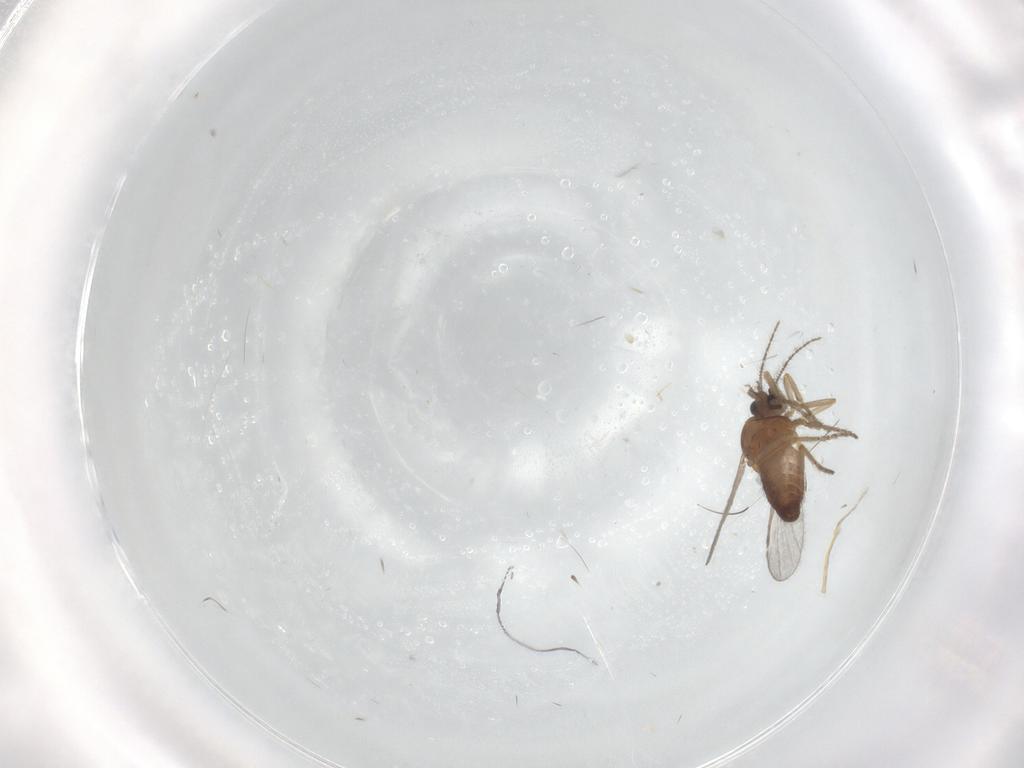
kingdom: Animalia
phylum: Arthropoda
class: Insecta
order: Diptera
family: Ceratopogonidae
